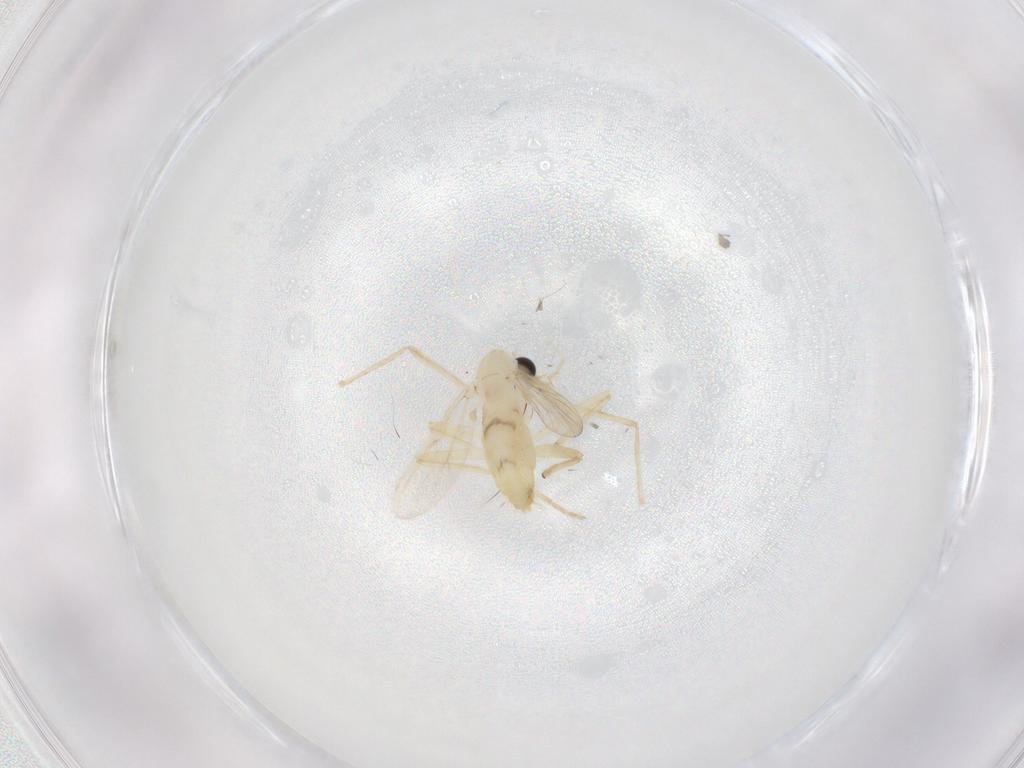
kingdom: Animalia
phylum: Arthropoda
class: Insecta
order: Diptera
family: Chironomidae
